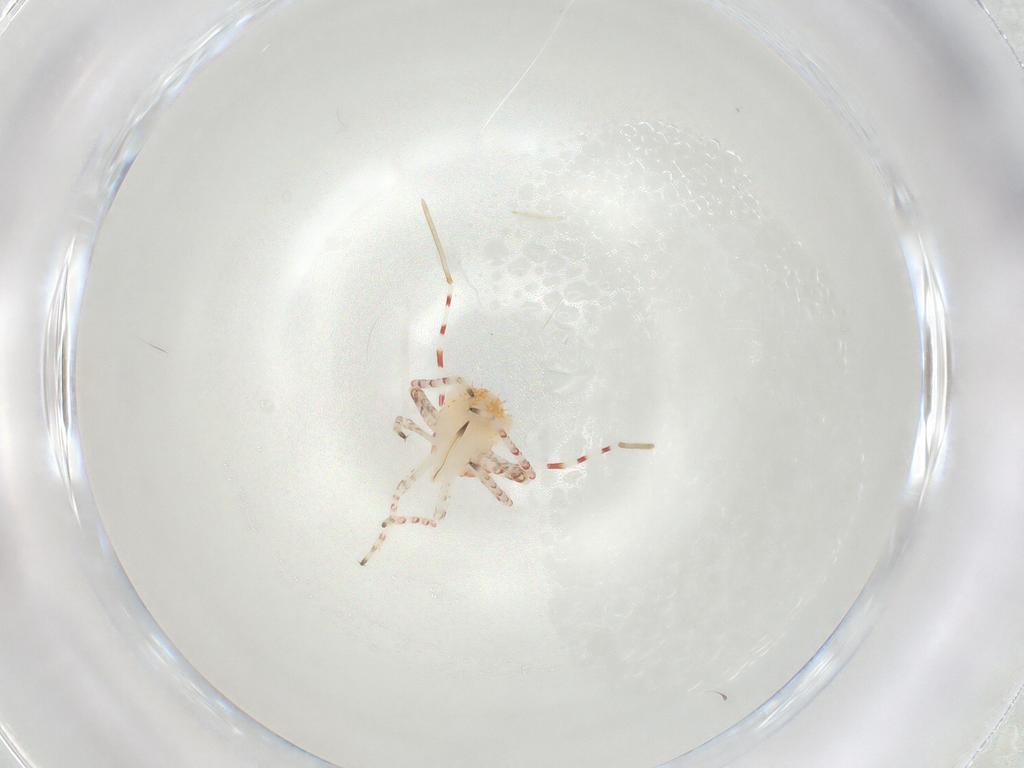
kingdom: Animalia
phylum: Arthropoda
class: Insecta
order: Hemiptera
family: Miridae
